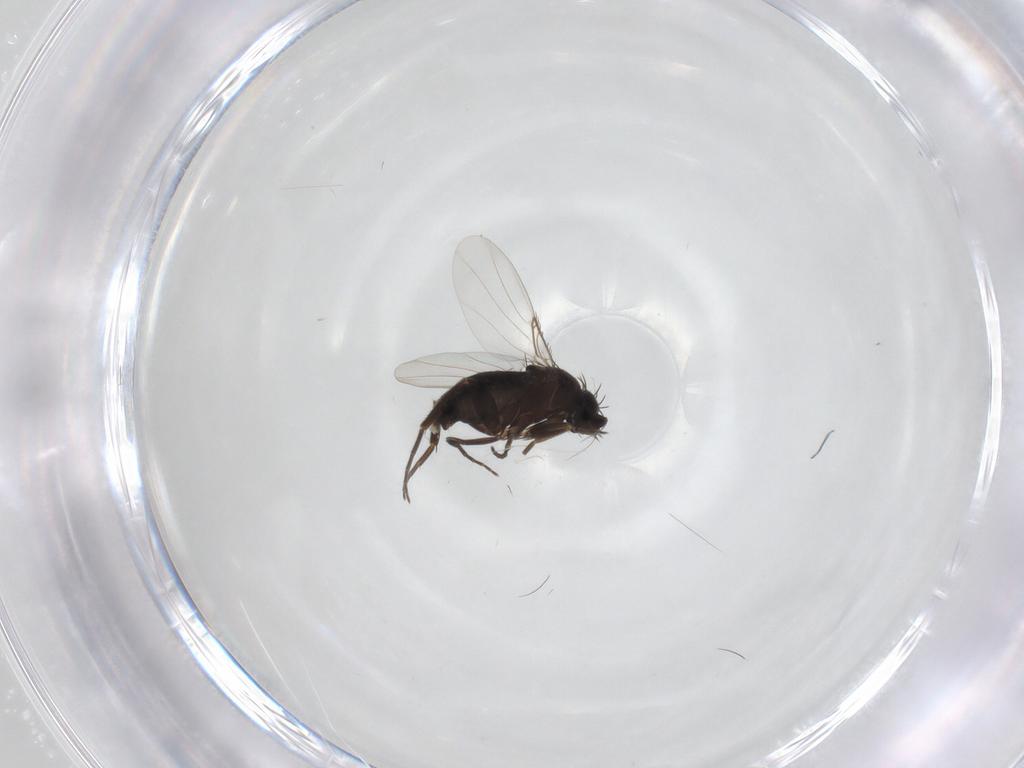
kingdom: Animalia
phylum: Arthropoda
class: Insecta
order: Diptera
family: Phoridae
